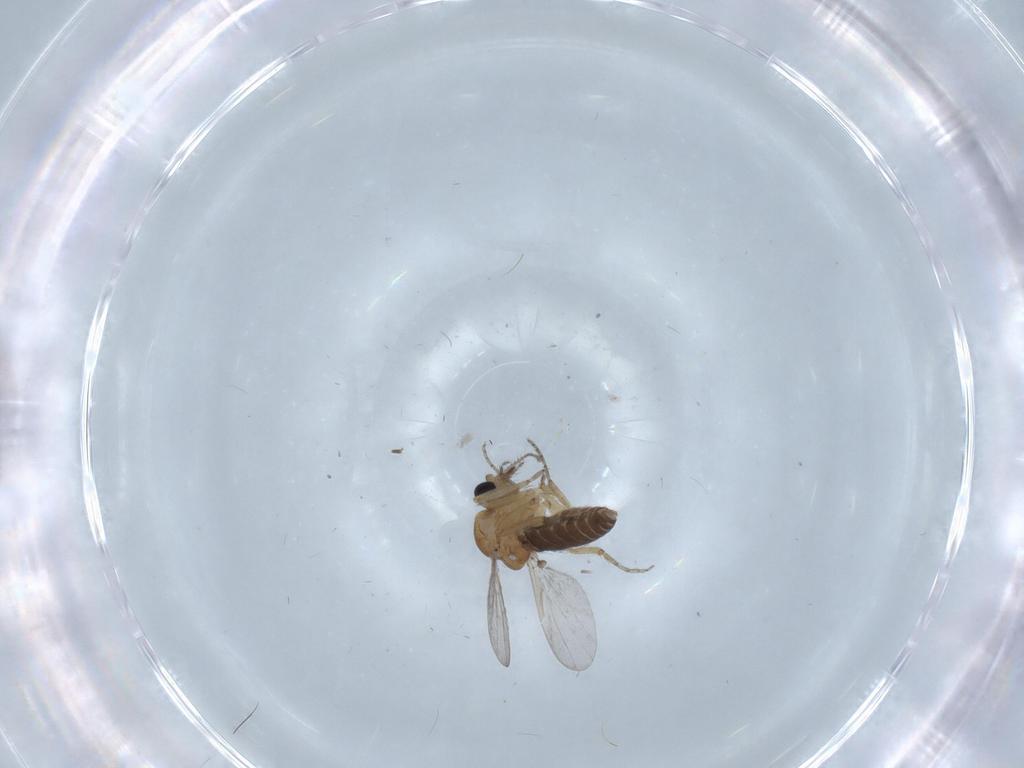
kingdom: Animalia
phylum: Arthropoda
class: Insecta
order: Diptera
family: Ceratopogonidae
